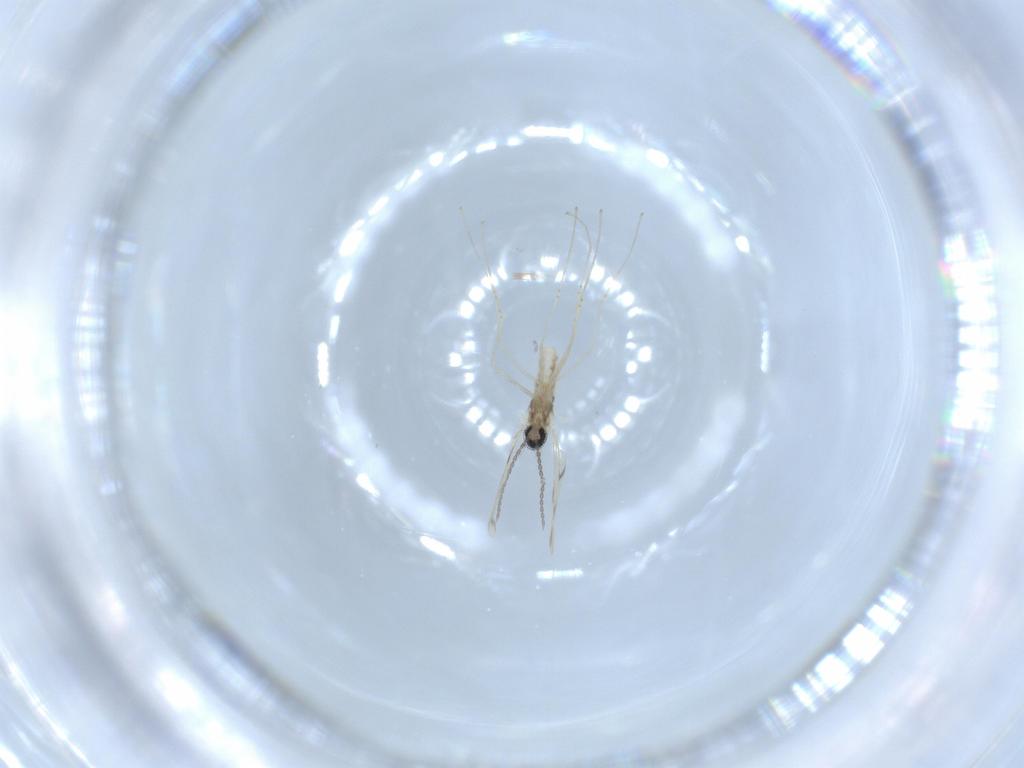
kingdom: Animalia
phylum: Arthropoda
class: Insecta
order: Diptera
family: Cecidomyiidae
